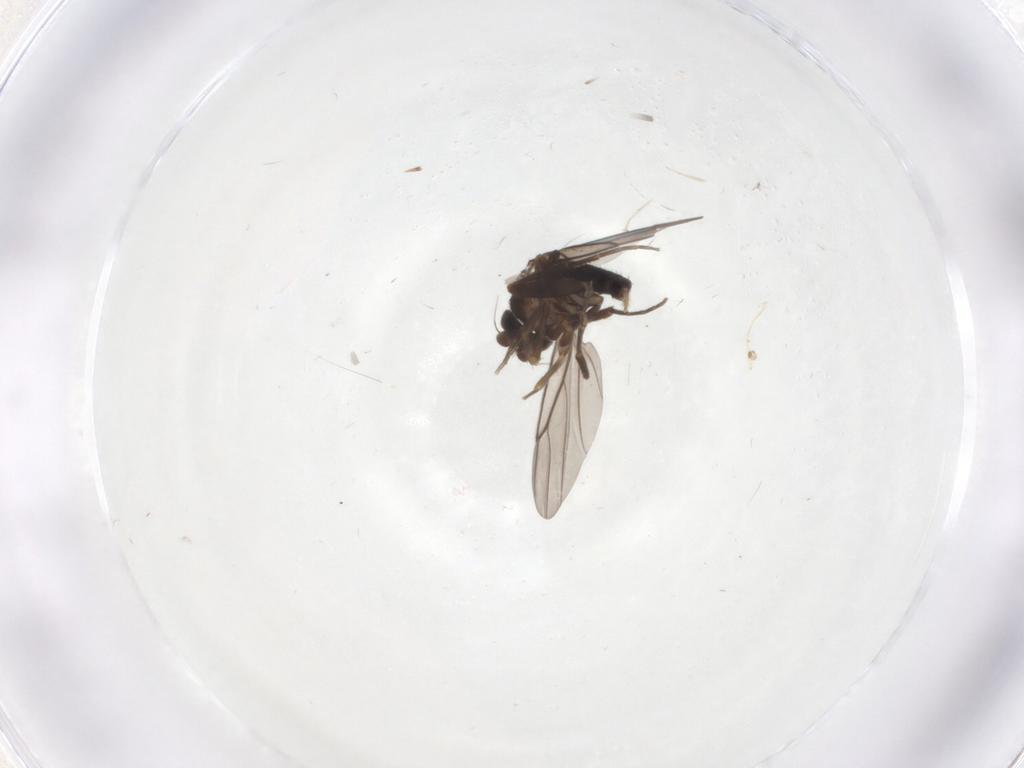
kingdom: Animalia
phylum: Arthropoda
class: Insecta
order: Diptera
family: Phoridae
